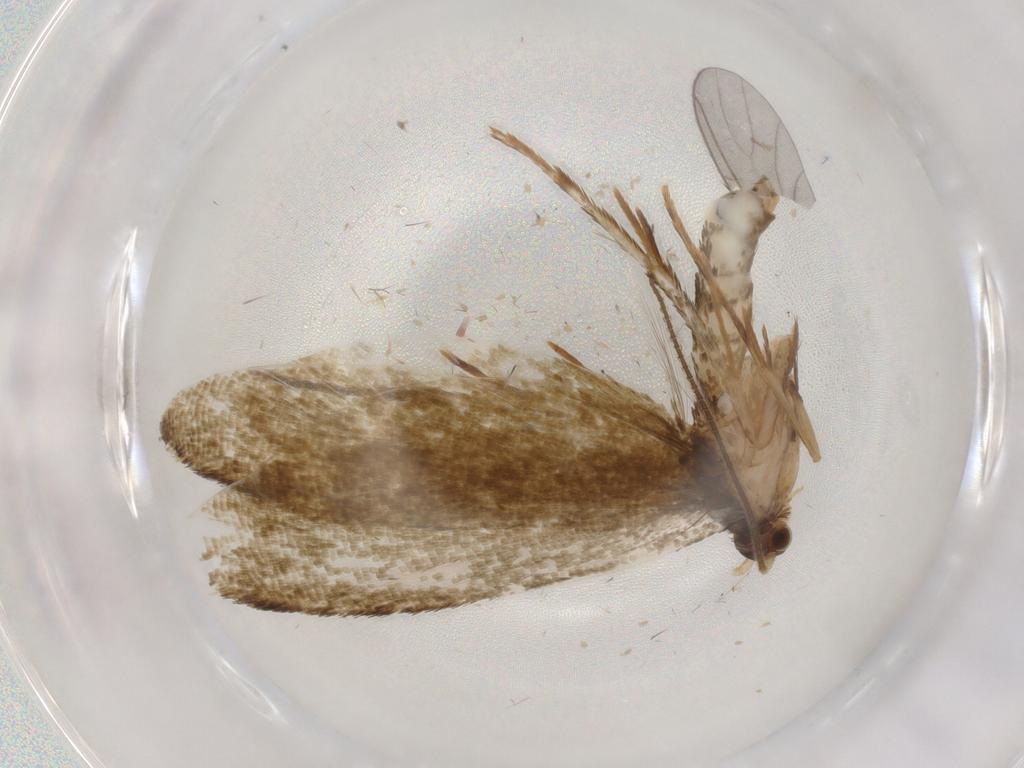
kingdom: Animalia
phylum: Arthropoda
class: Insecta
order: Lepidoptera
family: Tineidae
